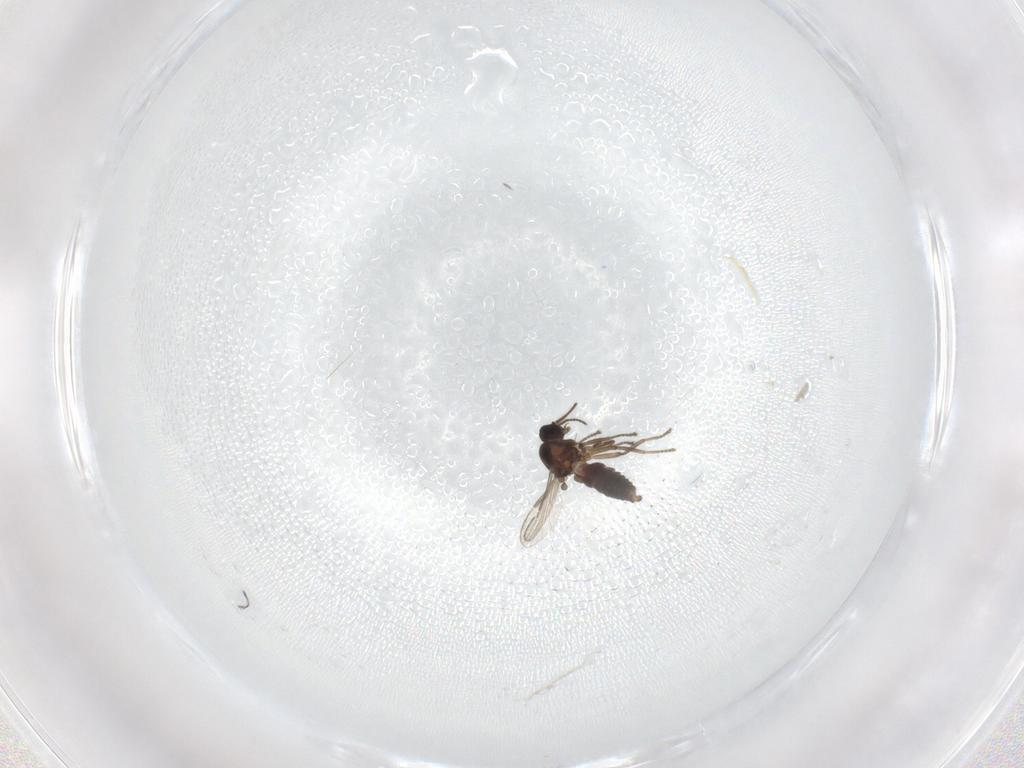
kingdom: Animalia
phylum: Arthropoda
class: Insecta
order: Diptera
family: Ceratopogonidae
